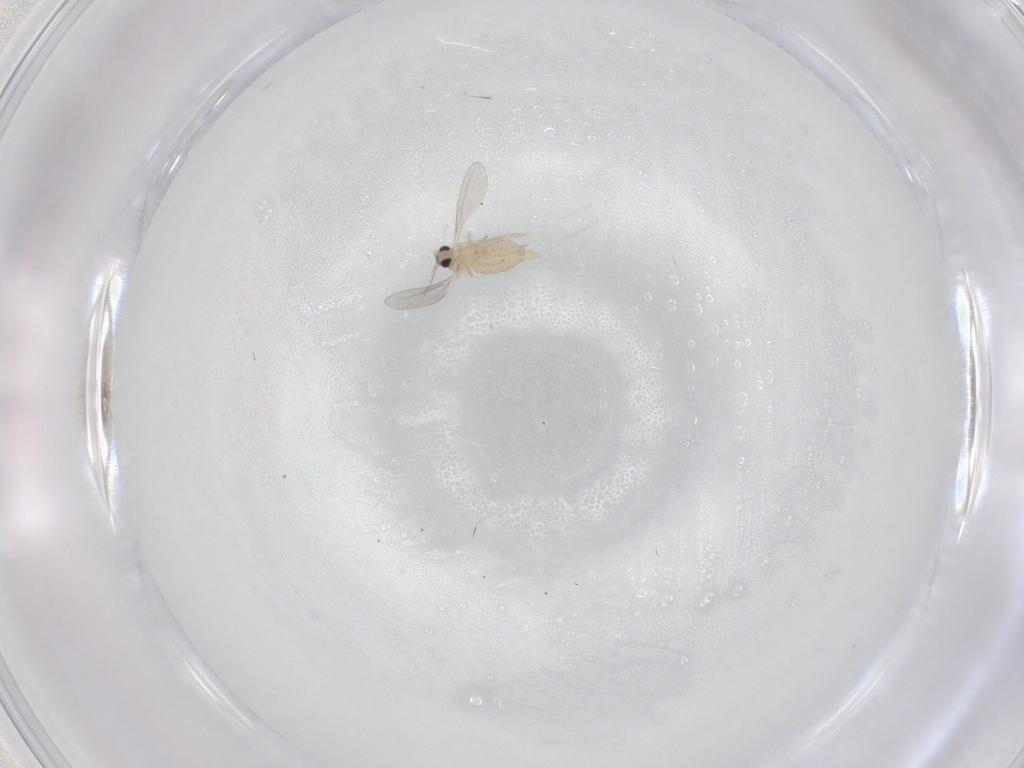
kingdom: Animalia
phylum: Arthropoda
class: Insecta
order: Diptera
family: Cecidomyiidae
